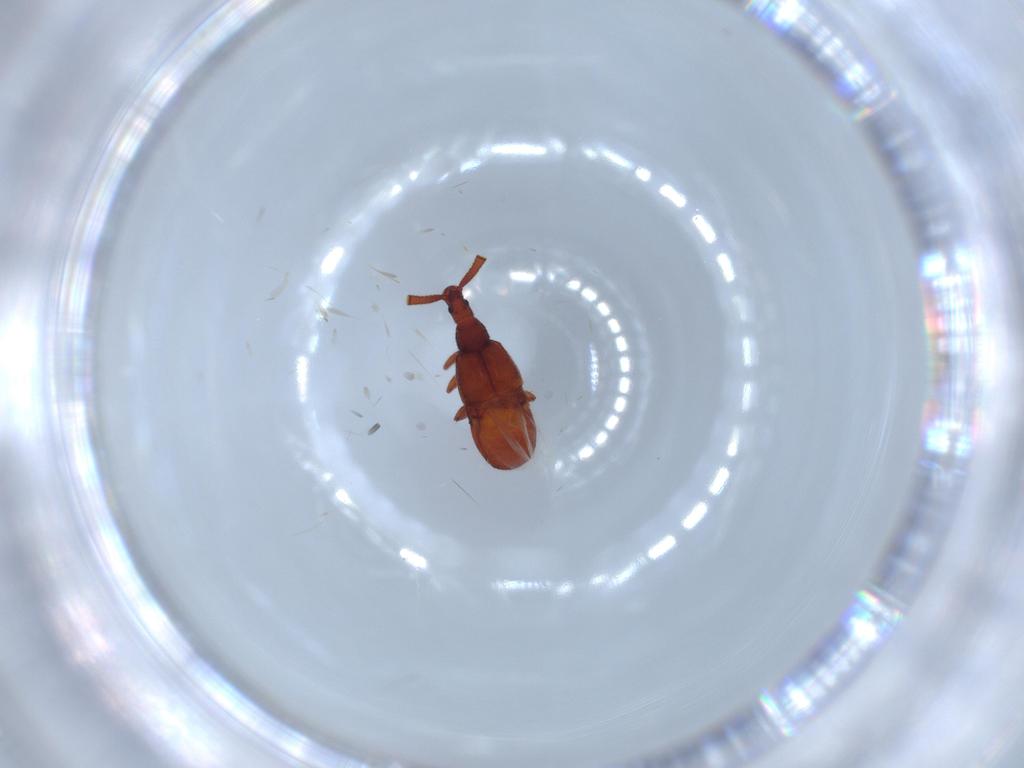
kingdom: Animalia
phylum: Arthropoda
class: Insecta
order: Coleoptera
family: Staphylinidae
